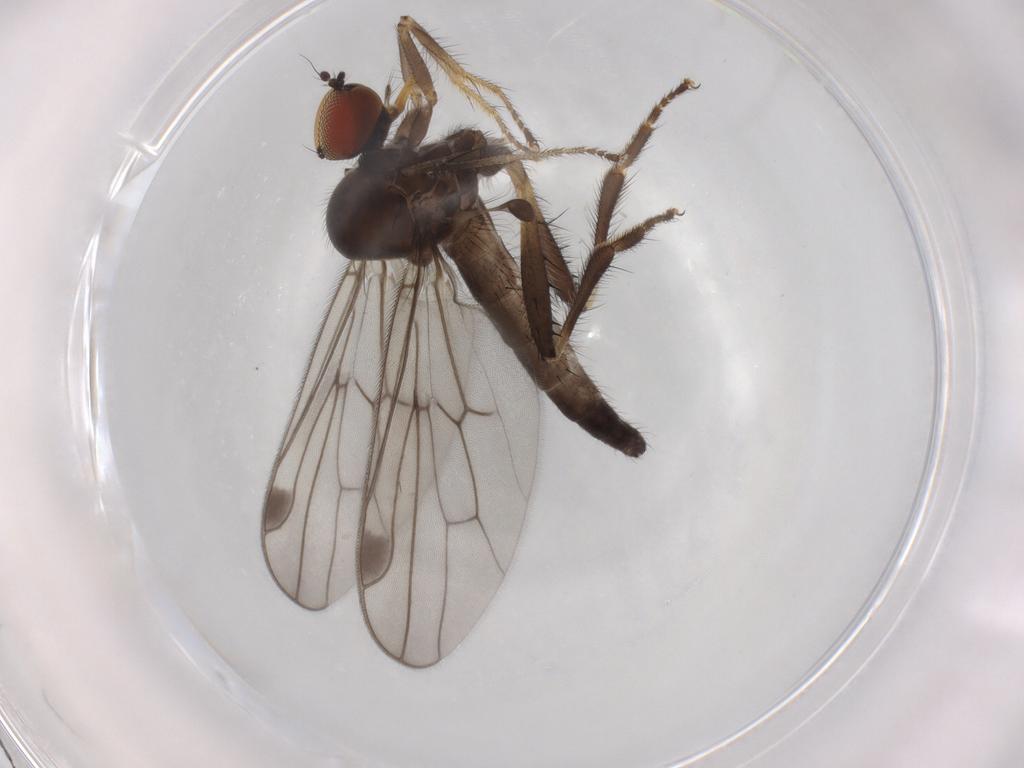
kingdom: Animalia
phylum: Arthropoda
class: Insecta
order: Diptera
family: Hybotidae
